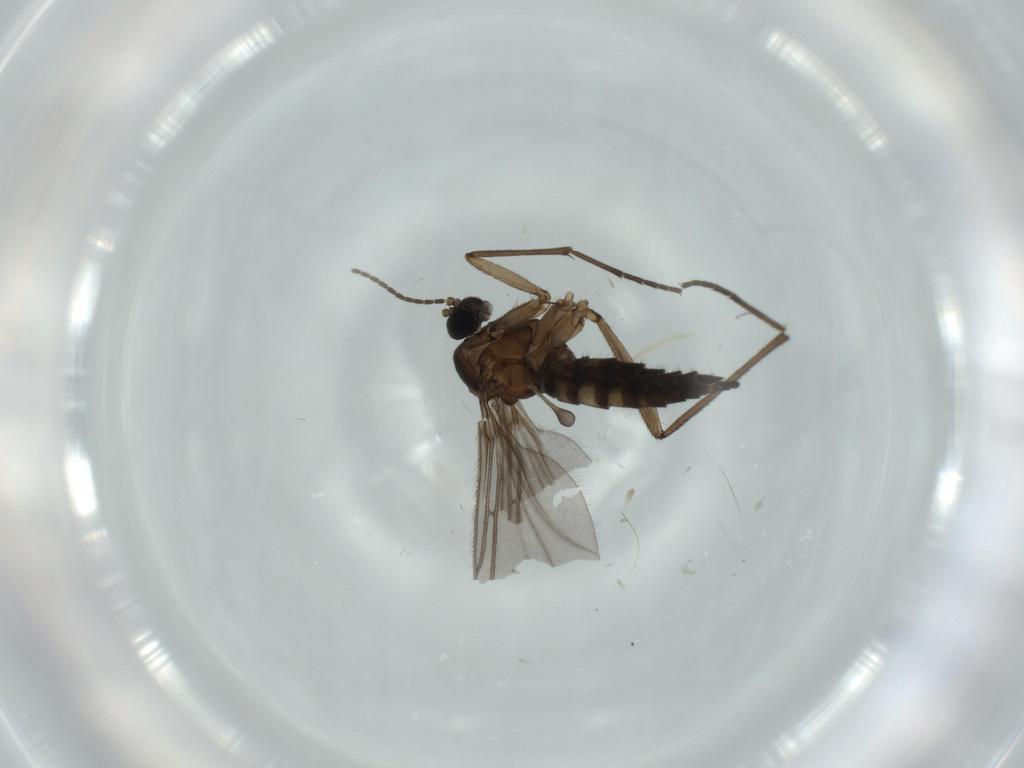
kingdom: Animalia
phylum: Arthropoda
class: Insecta
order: Diptera
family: Sciaridae
